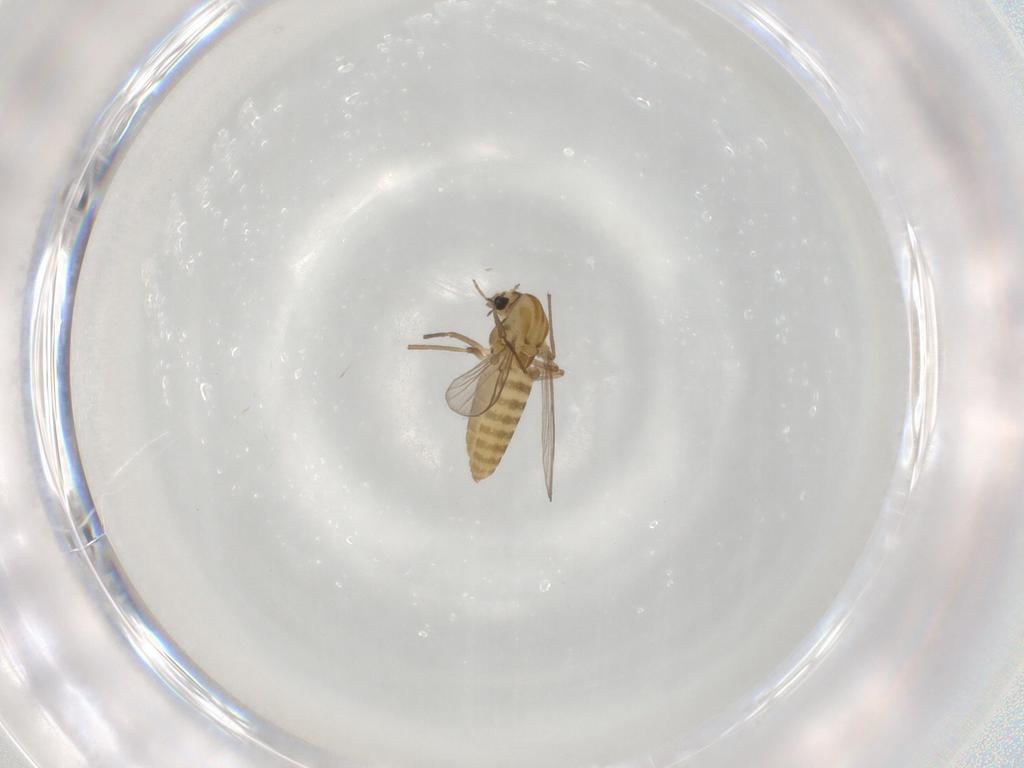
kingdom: Animalia
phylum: Arthropoda
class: Insecta
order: Diptera
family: Chironomidae
